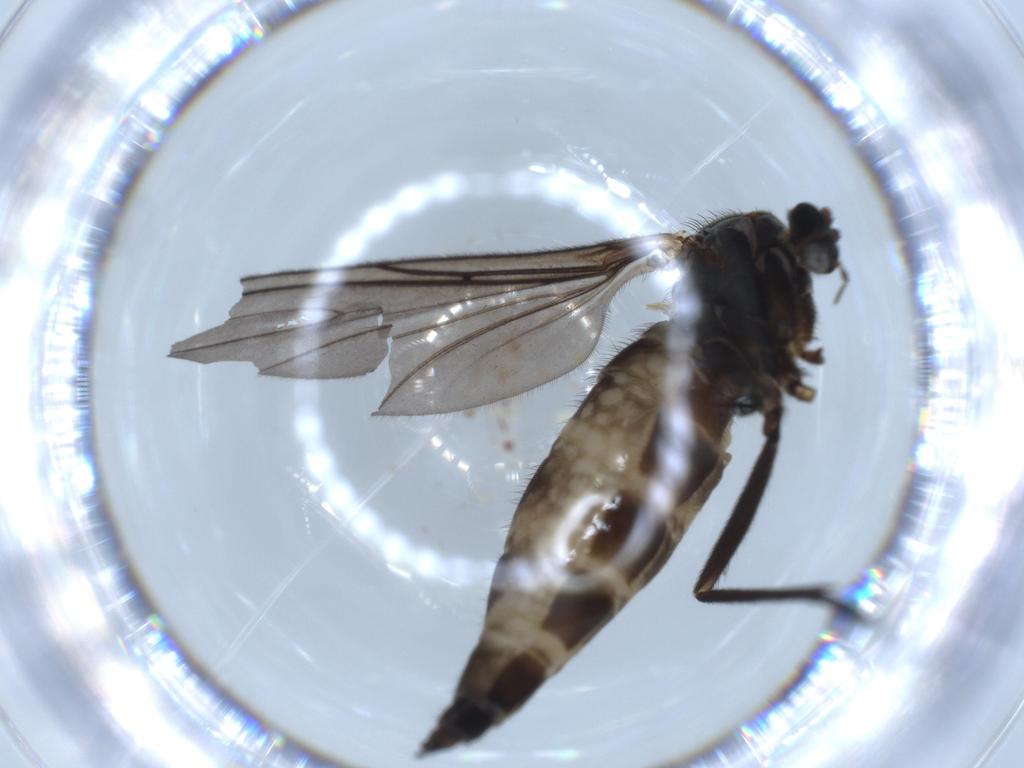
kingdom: Animalia
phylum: Arthropoda
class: Insecta
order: Diptera
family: Sciaridae
